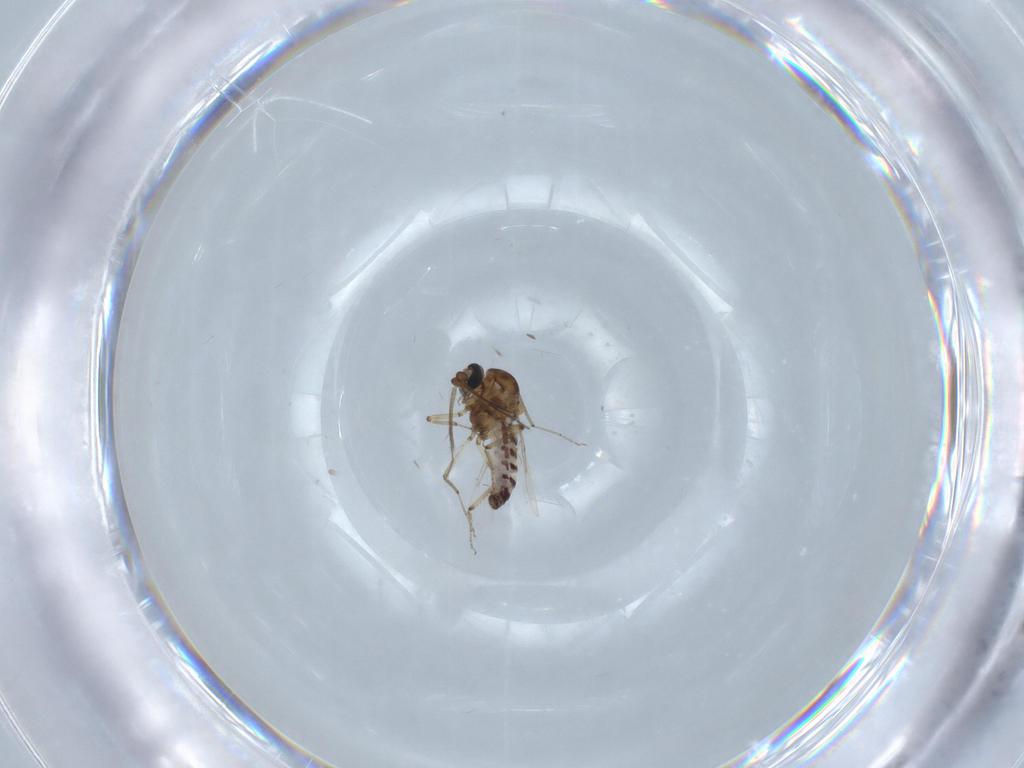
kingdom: Animalia
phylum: Arthropoda
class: Insecta
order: Diptera
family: Ceratopogonidae
